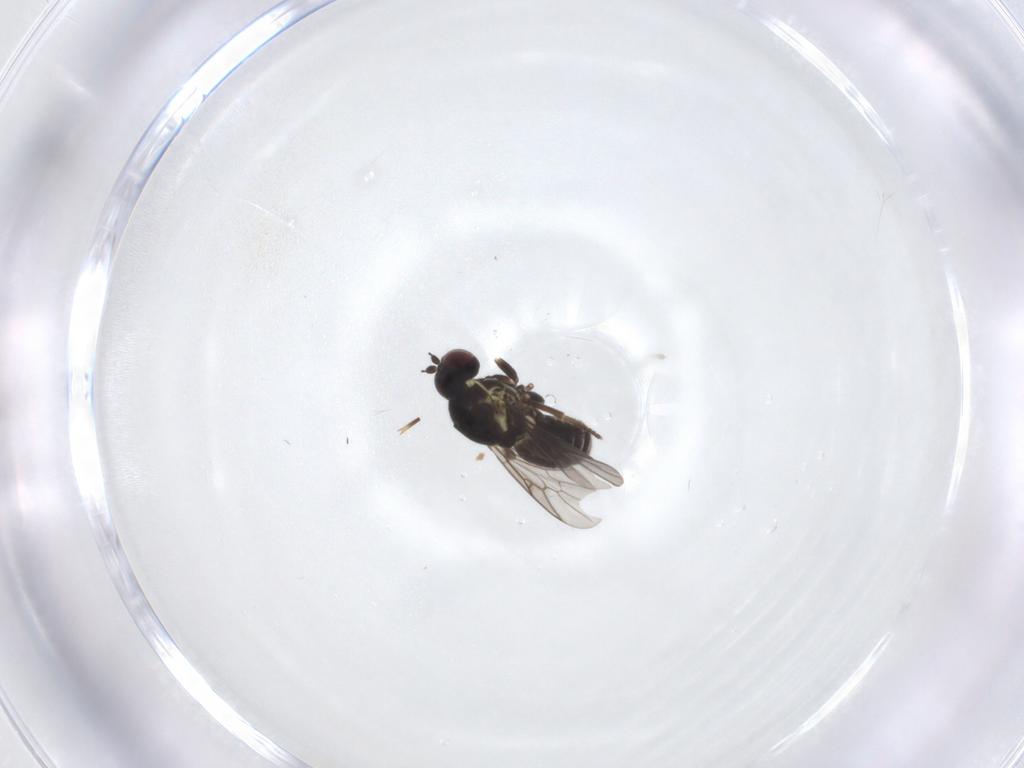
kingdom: Animalia
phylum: Arthropoda
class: Insecta
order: Diptera
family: Bombyliidae
